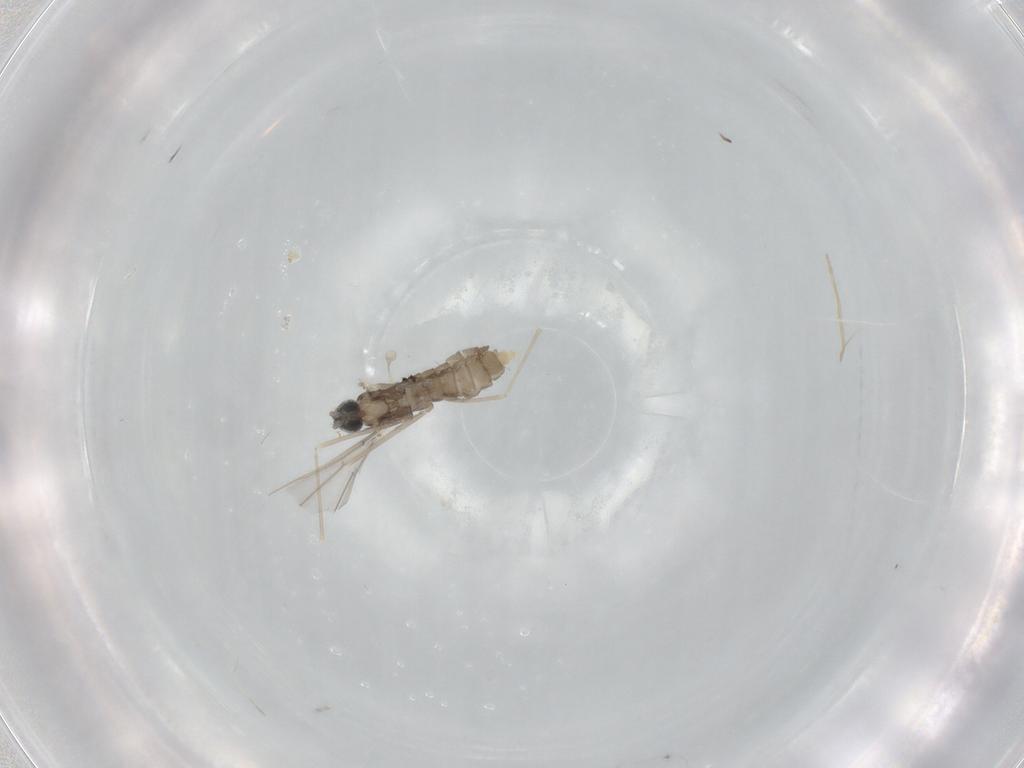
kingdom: Animalia
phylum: Arthropoda
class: Insecta
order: Diptera
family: Cecidomyiidae
